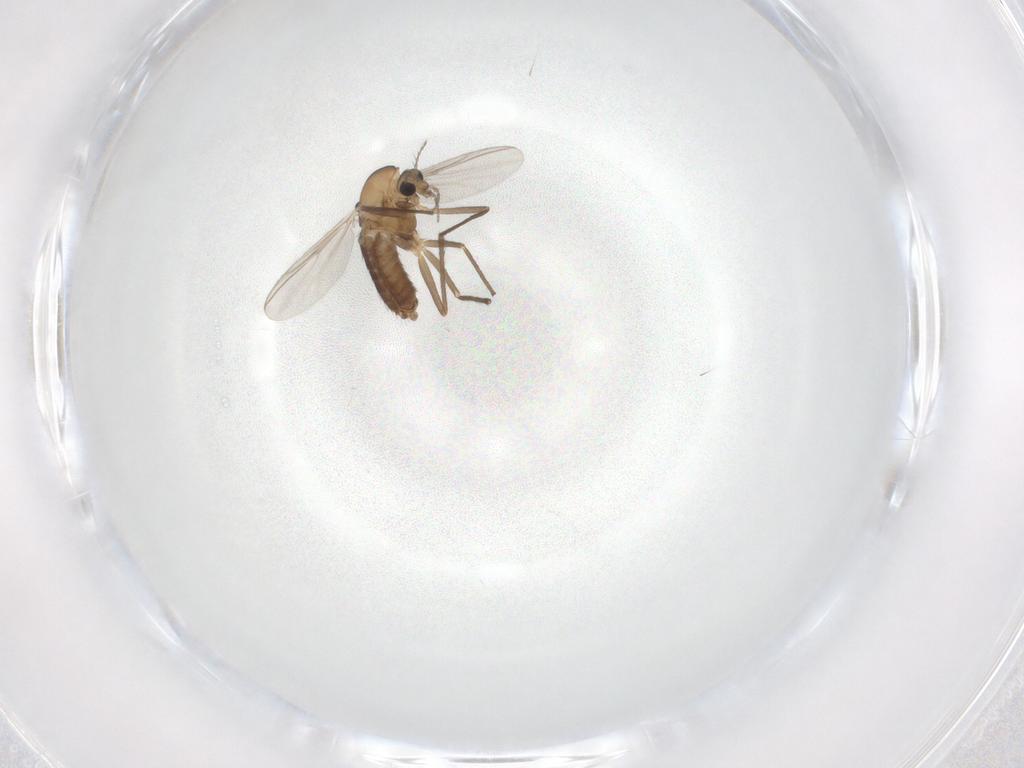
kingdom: Animalia
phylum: Arthropoda
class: Insecta
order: Diptera
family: Chironomidae
